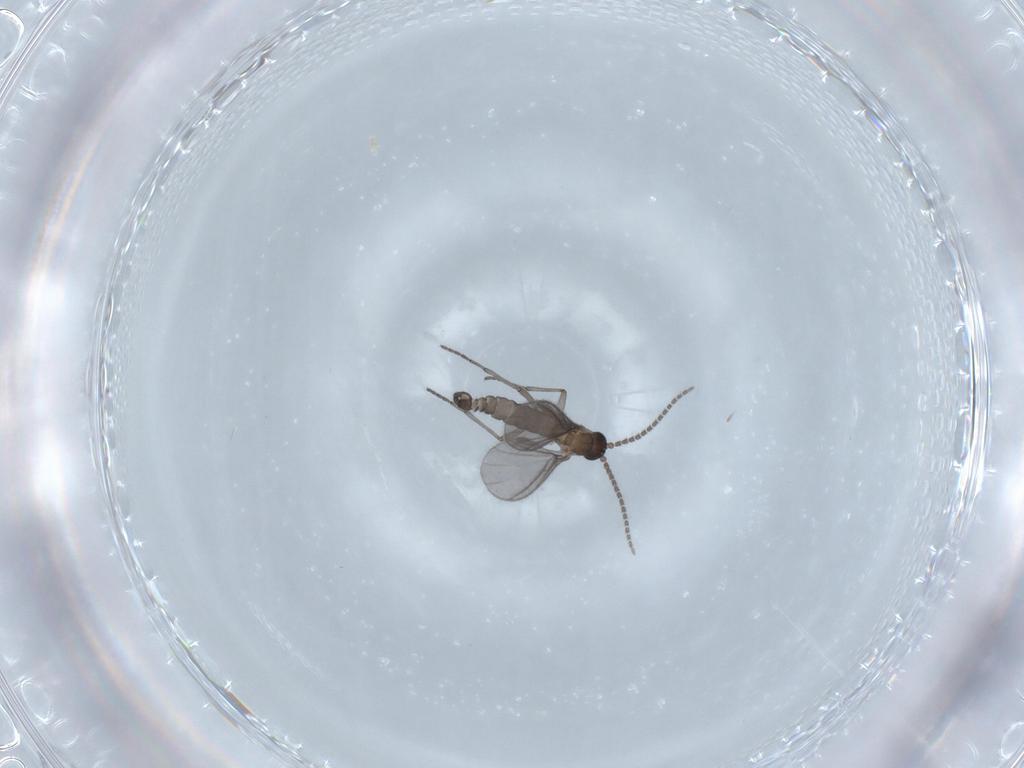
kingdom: Animalia
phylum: Arthropoda
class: Insecta
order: Diptera
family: Sciaridae
